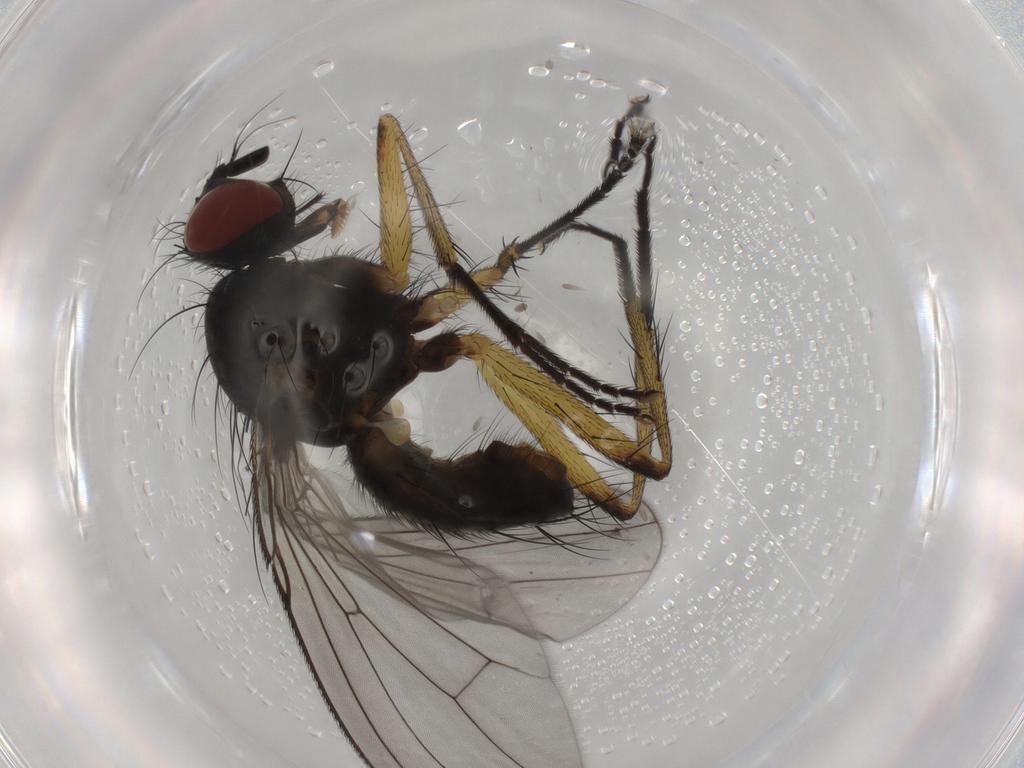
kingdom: Animalia
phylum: Arthropoda
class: Insecta
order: Diptera
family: Muscidae
